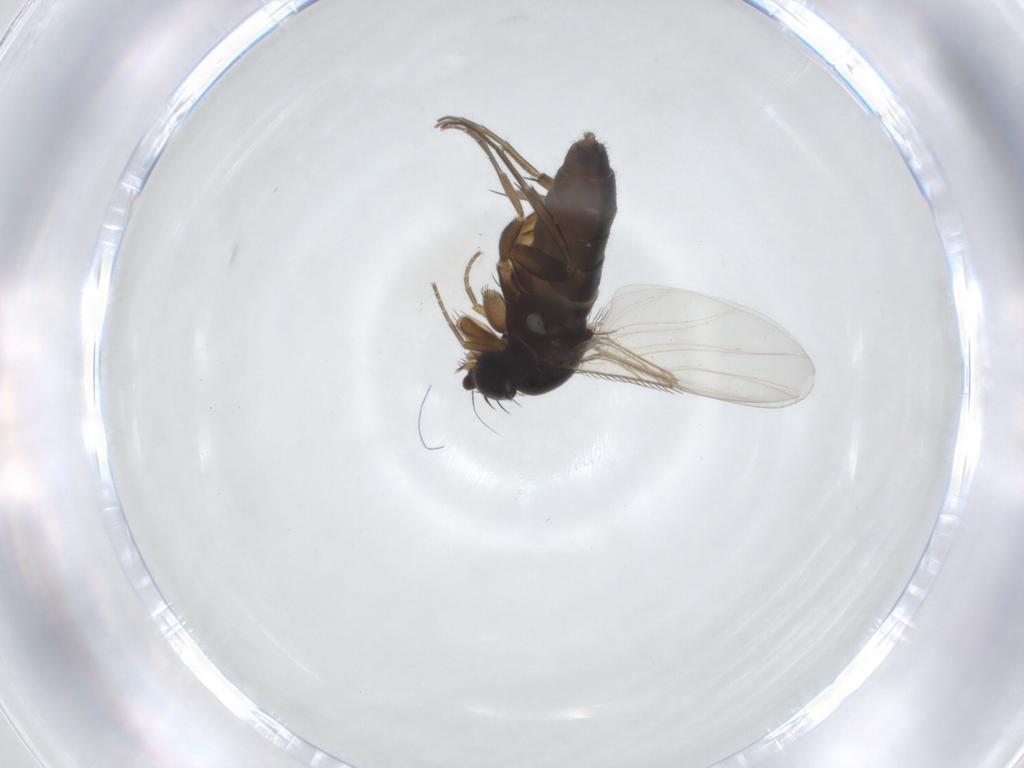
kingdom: Animalia
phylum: Arthropoda
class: Insecta
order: Diptera
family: Phoridae
